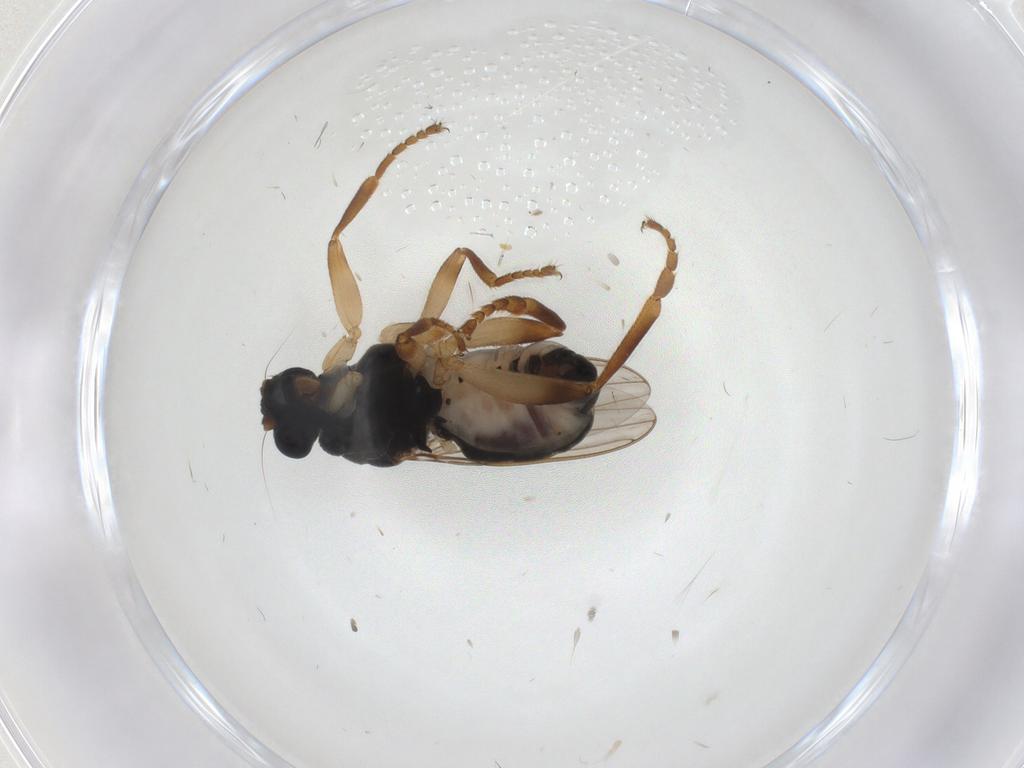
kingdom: Animalia
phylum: Arthropoda
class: Insecta
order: Diptera
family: Sphaeroceridae
